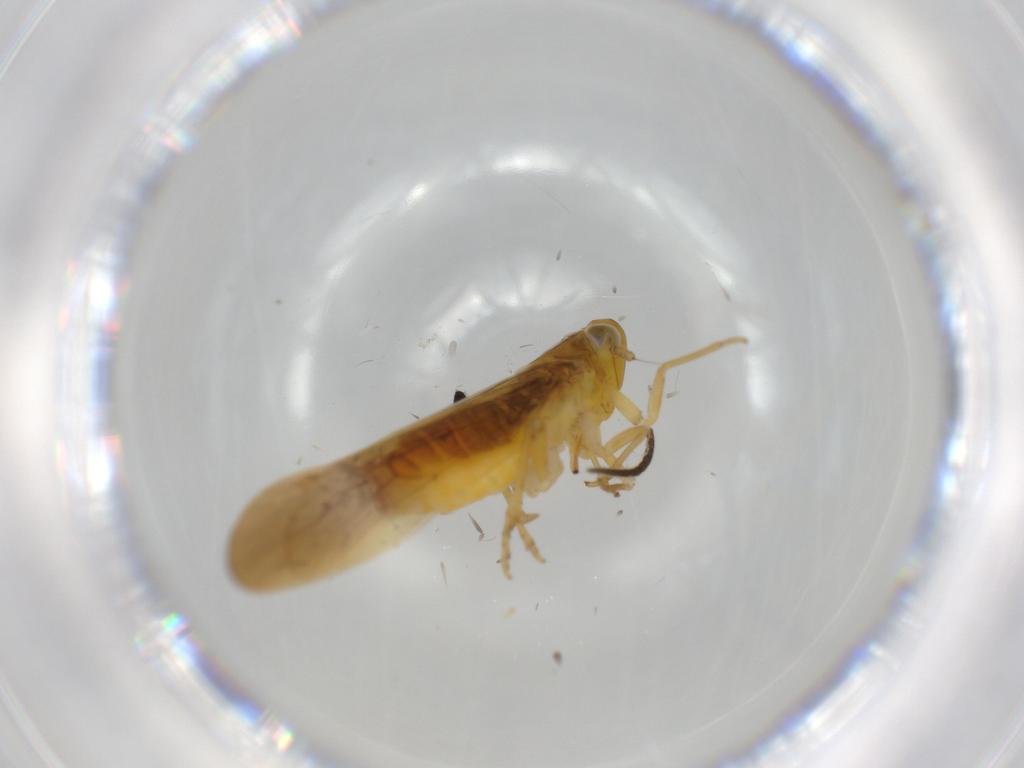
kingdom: Animalia
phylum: Arthropoda
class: Insecta
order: Hemiptera
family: Delphacidae
